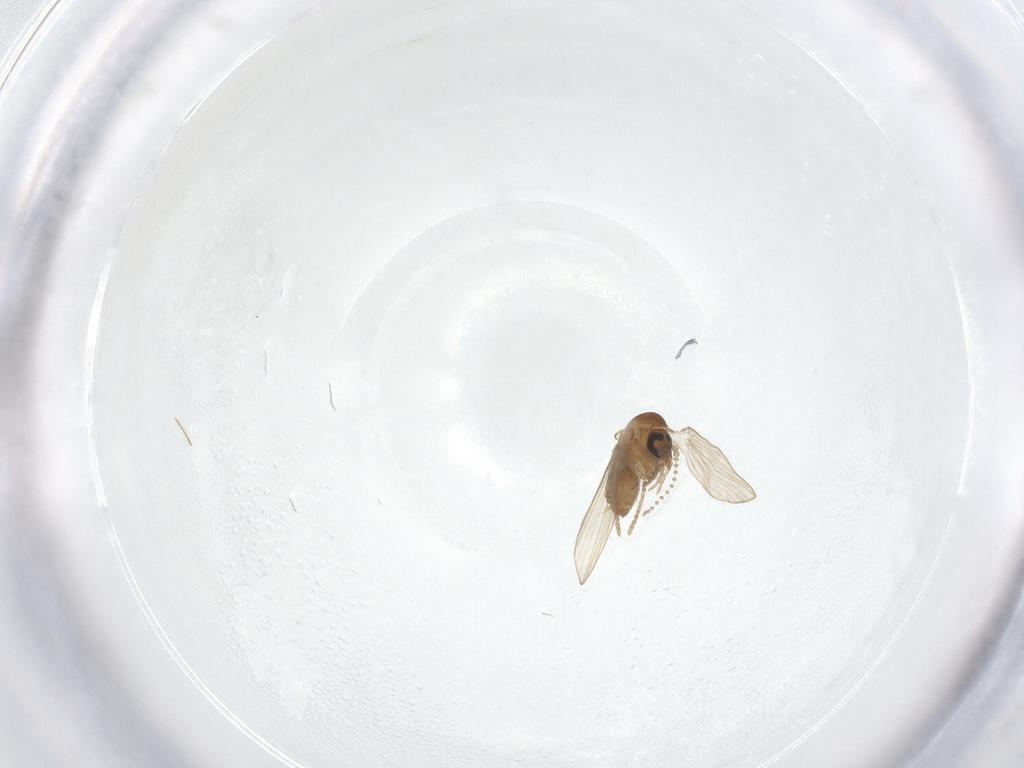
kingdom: Animalia
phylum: Arthropoda
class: Insecta
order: Diptera
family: Psychodidae
